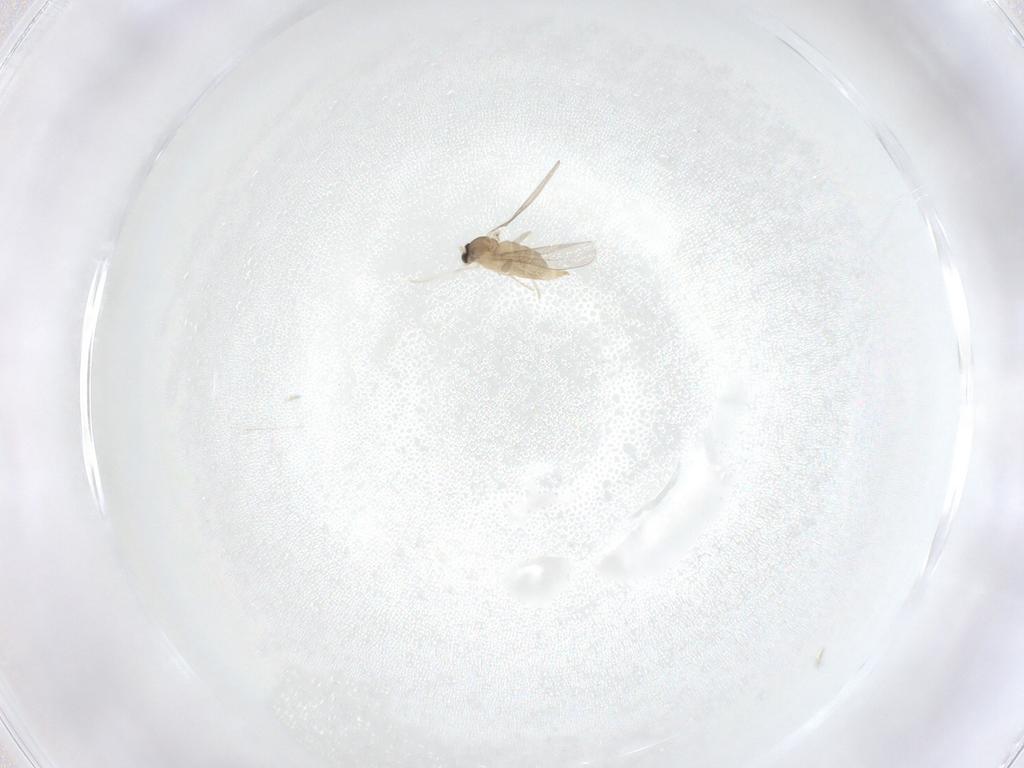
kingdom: Animalia
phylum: Arthropoda
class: Insecta
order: Diptera
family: Cecidomyiidae
